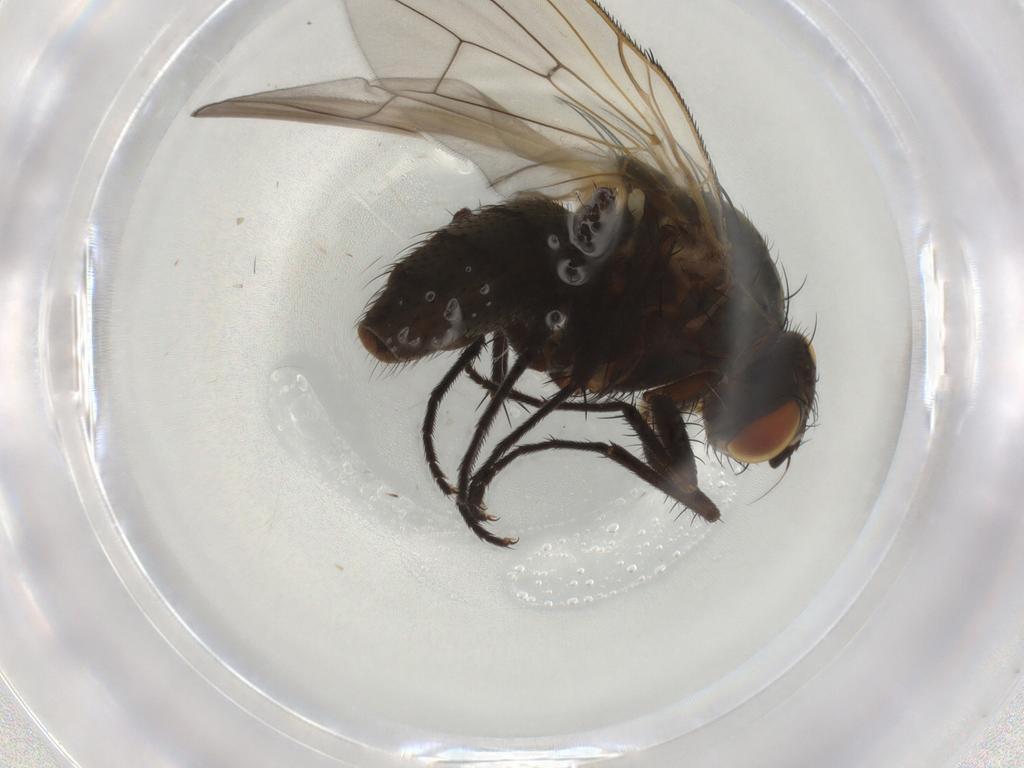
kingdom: Animalia
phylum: Arthropoda
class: Insecta
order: Diptera
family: Anthomyiidae
